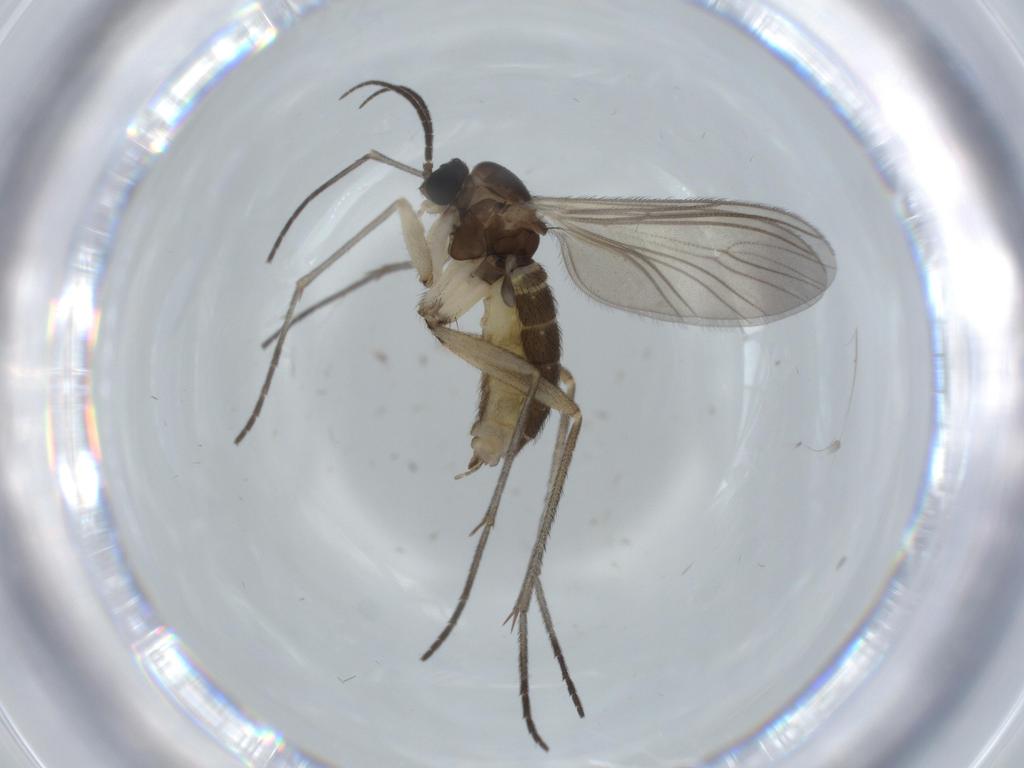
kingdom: Animalia
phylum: Arthropoda
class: Insecta
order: Diptera
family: Sciaridae
